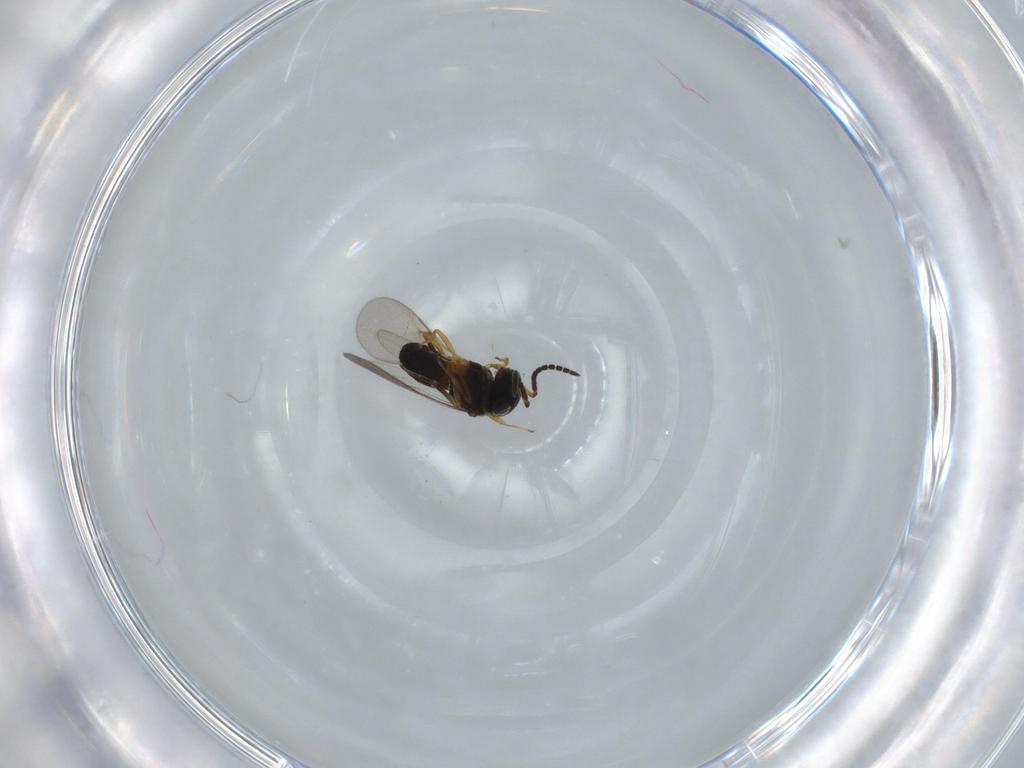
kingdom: Animalia
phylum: Arthropoda
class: Insecta
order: Hymenoptera
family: Scelionidae
